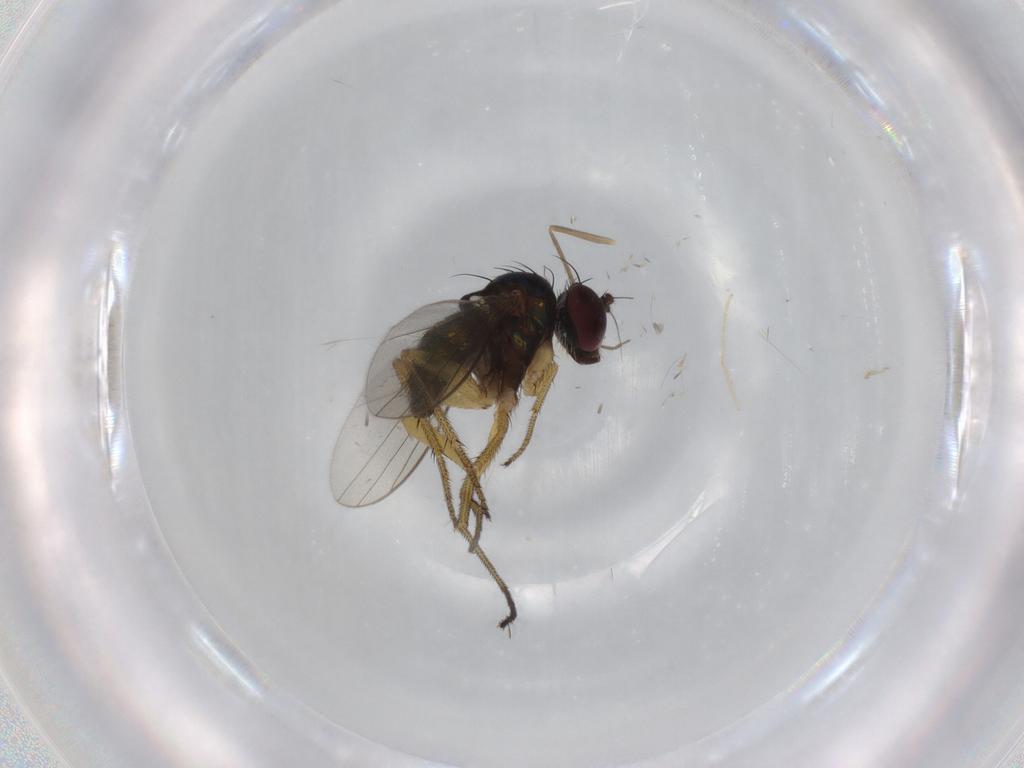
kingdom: Animalia
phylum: Arthropoda
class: Insecta
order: Diptera
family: Dolichopodidae
